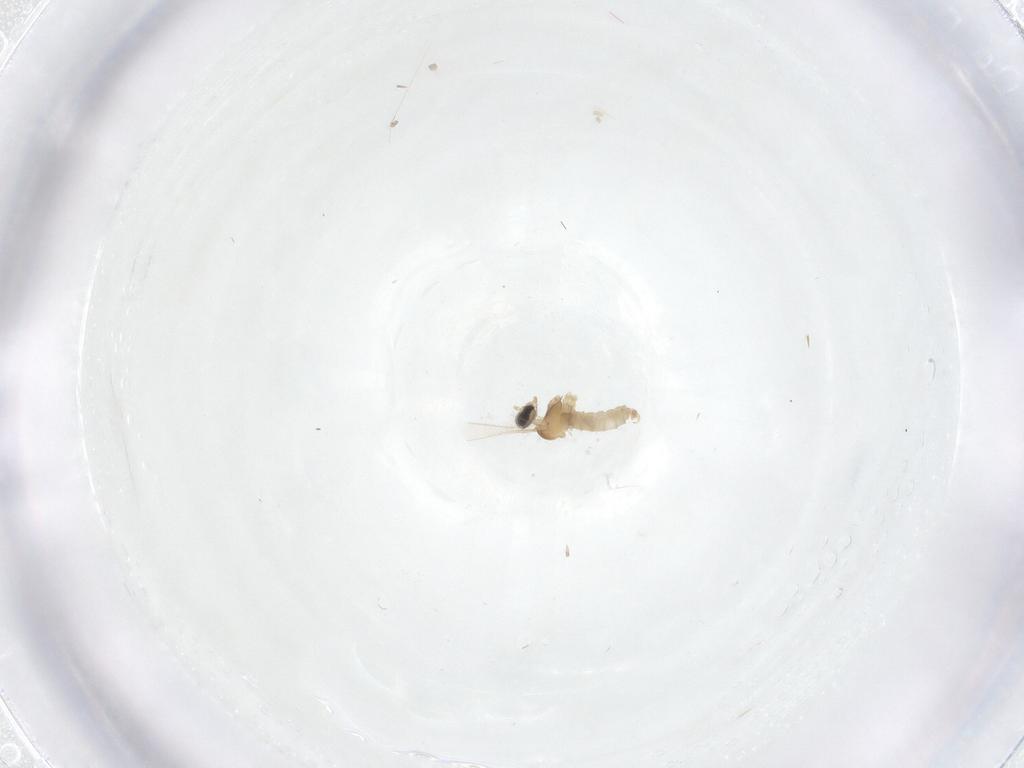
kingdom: Animalia
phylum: Arthropoda
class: Insecta
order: Diptera
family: Cecidomyiidae
